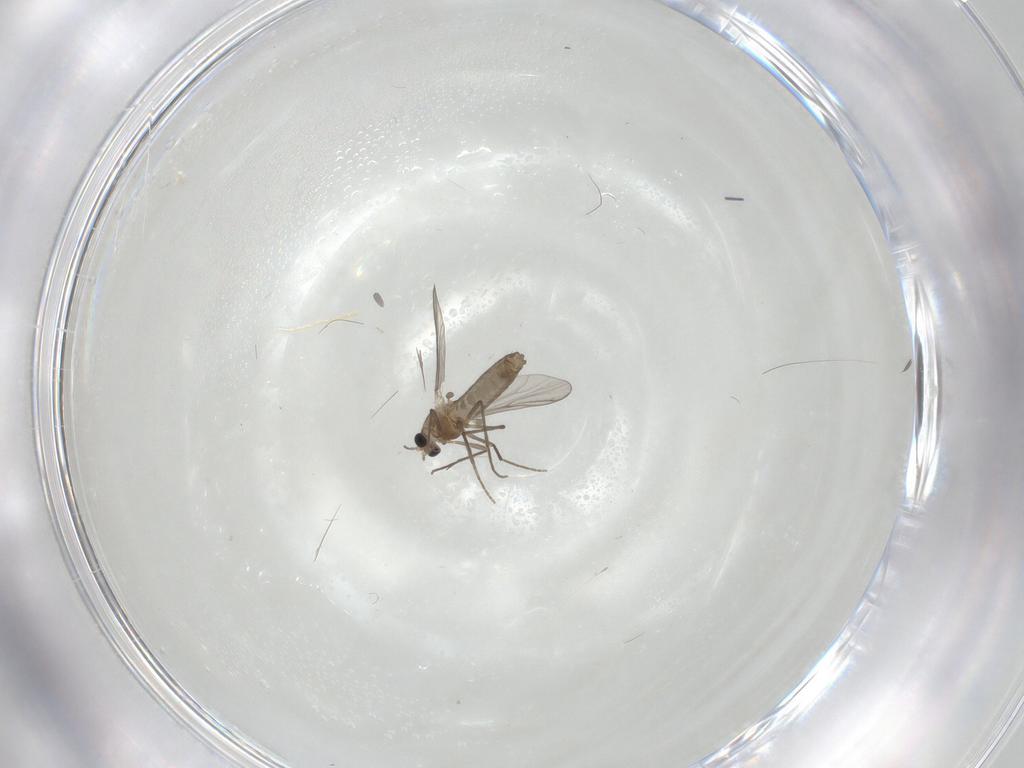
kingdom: Animalia
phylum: Arthropoda
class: Insecta
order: Diptera
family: Chironomidae
